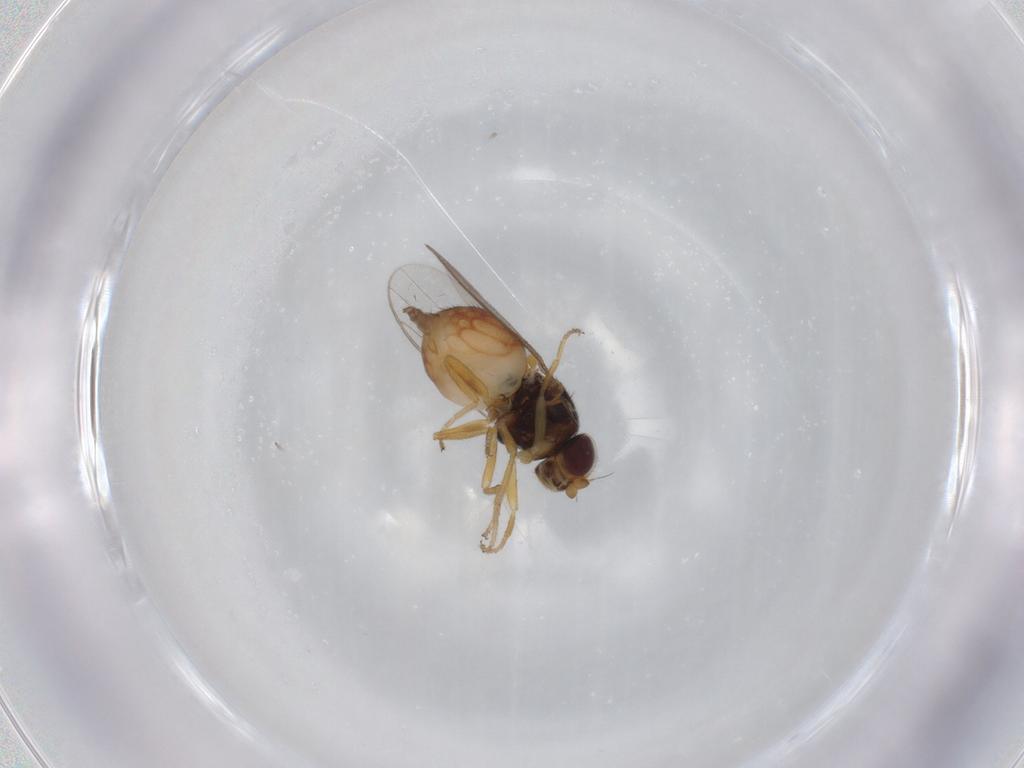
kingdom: Animalia
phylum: Arthropoda
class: Insecta
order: Diptera
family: Chloropidae
